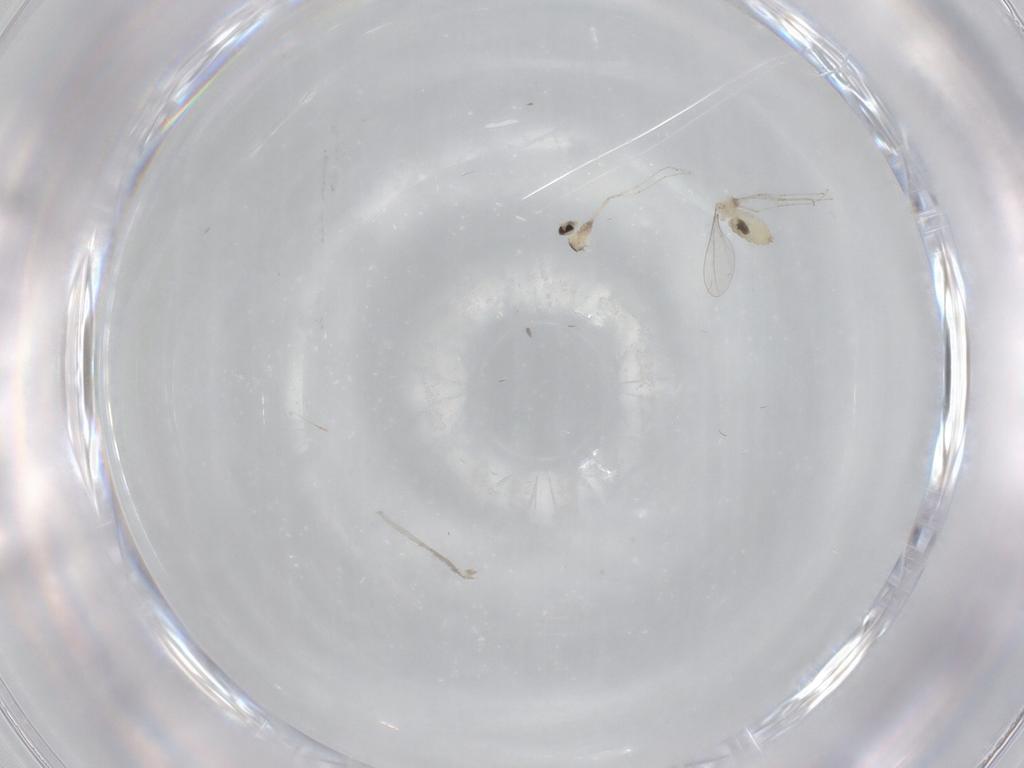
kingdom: Animalia
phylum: Arthropoda
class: Insecta
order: Diptera
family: Cecidomyiidae
